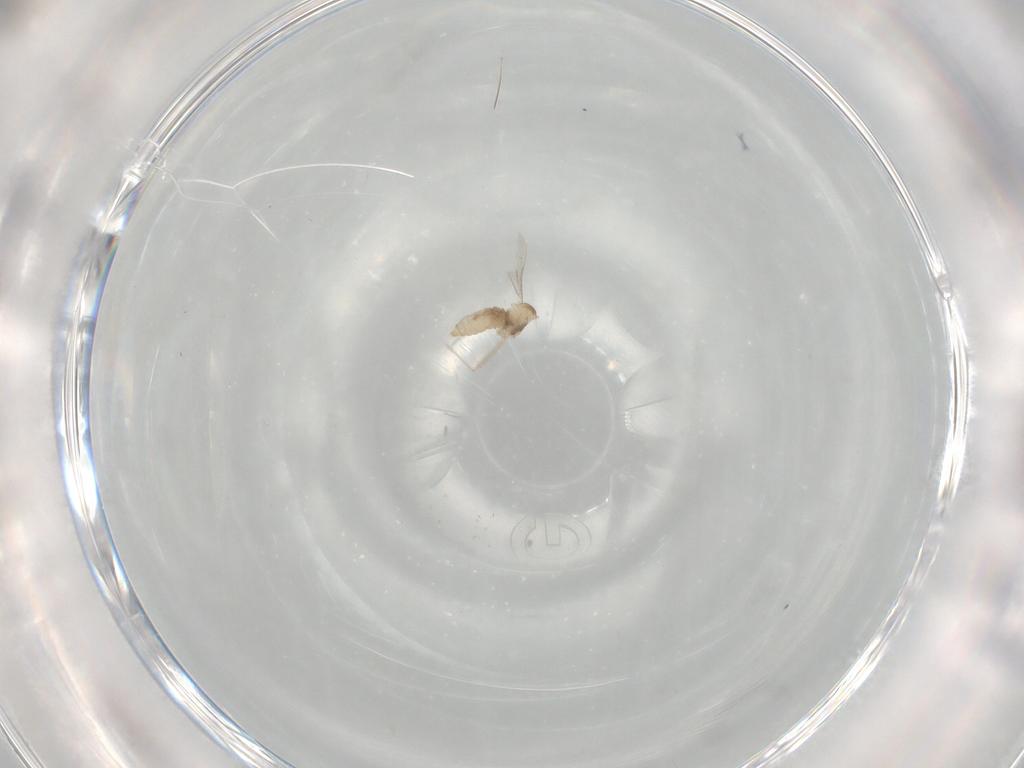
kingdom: Animalia
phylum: Arthropoda
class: Insecta
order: Diptera
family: Cecidomyiidae
